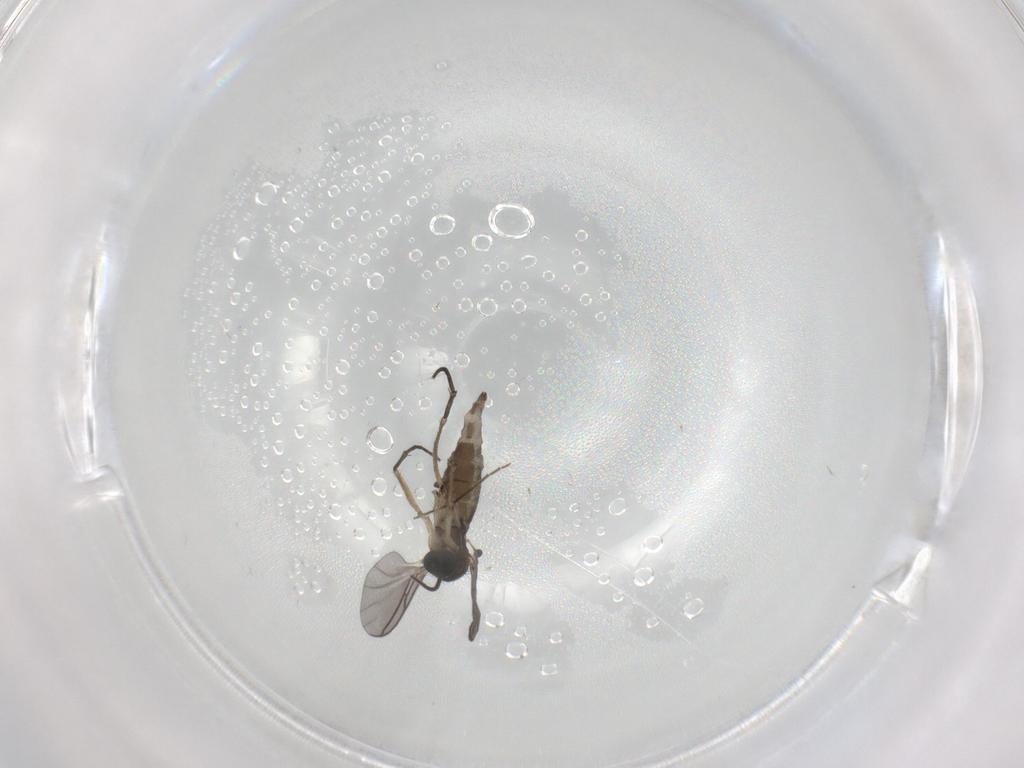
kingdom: Animalia
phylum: Arthropoda
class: Insecta
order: Diptera
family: Sciaridae
